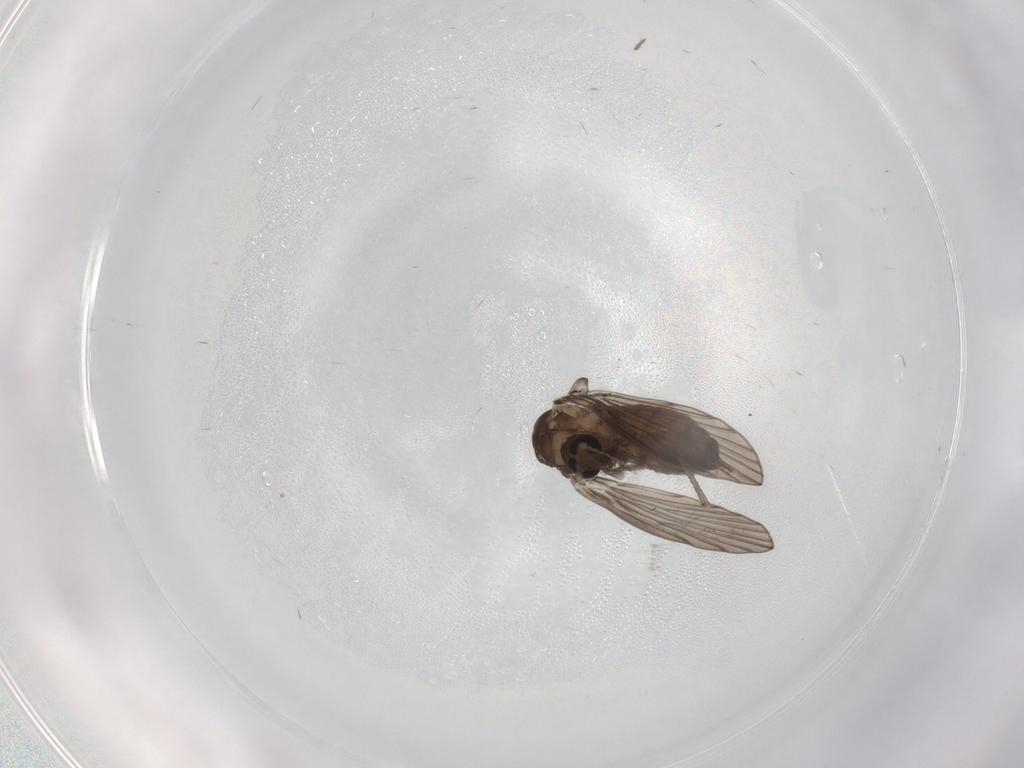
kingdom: Animalia
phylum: Arthropoda
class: Insecta
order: Diptera
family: Psychodidae
